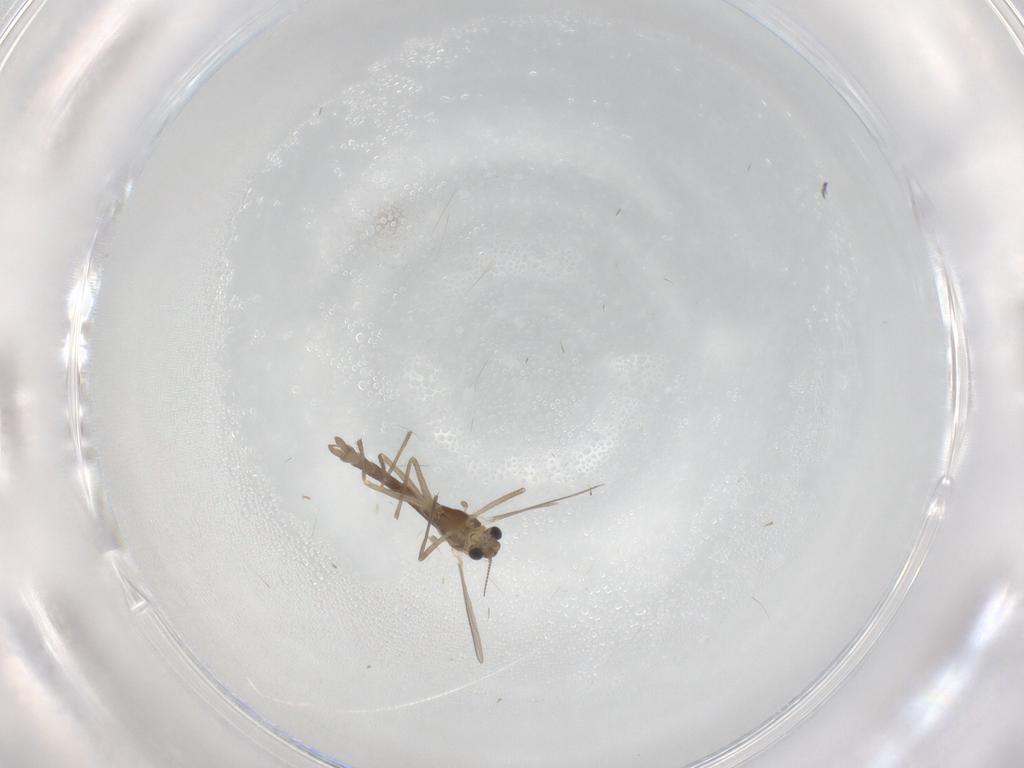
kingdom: Animalia
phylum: Arthropoda
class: Insecta
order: Diptera
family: Chironomidae
